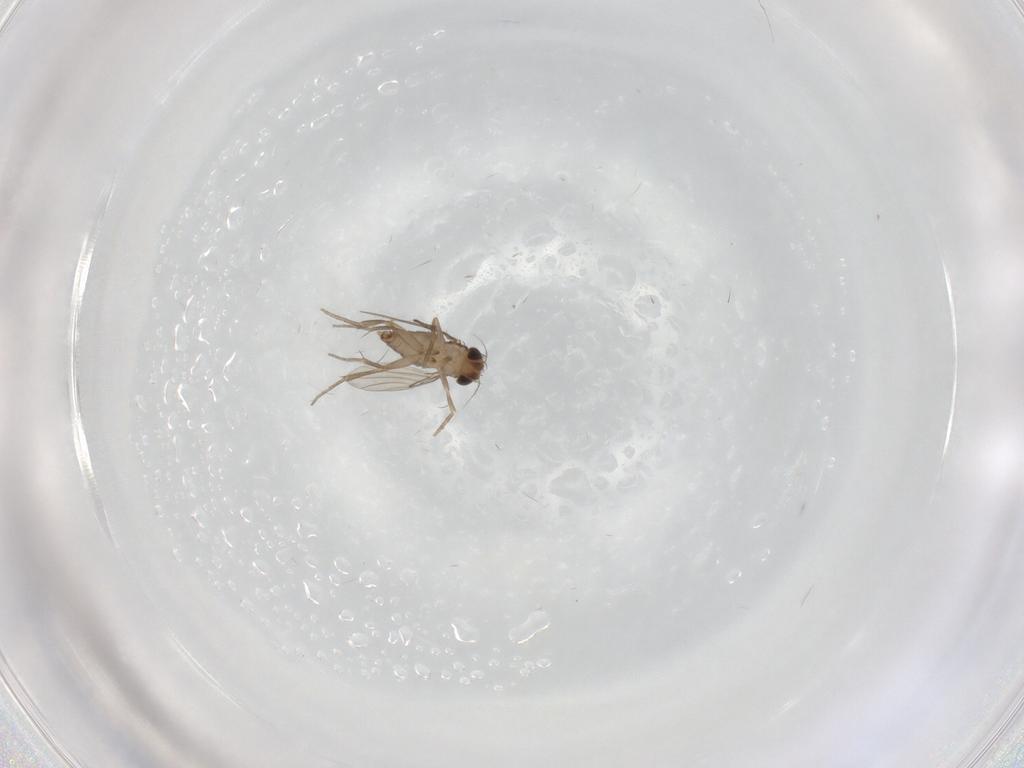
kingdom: Animalia
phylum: Arthropoda
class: Insecta
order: Diptera
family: Phoridae
